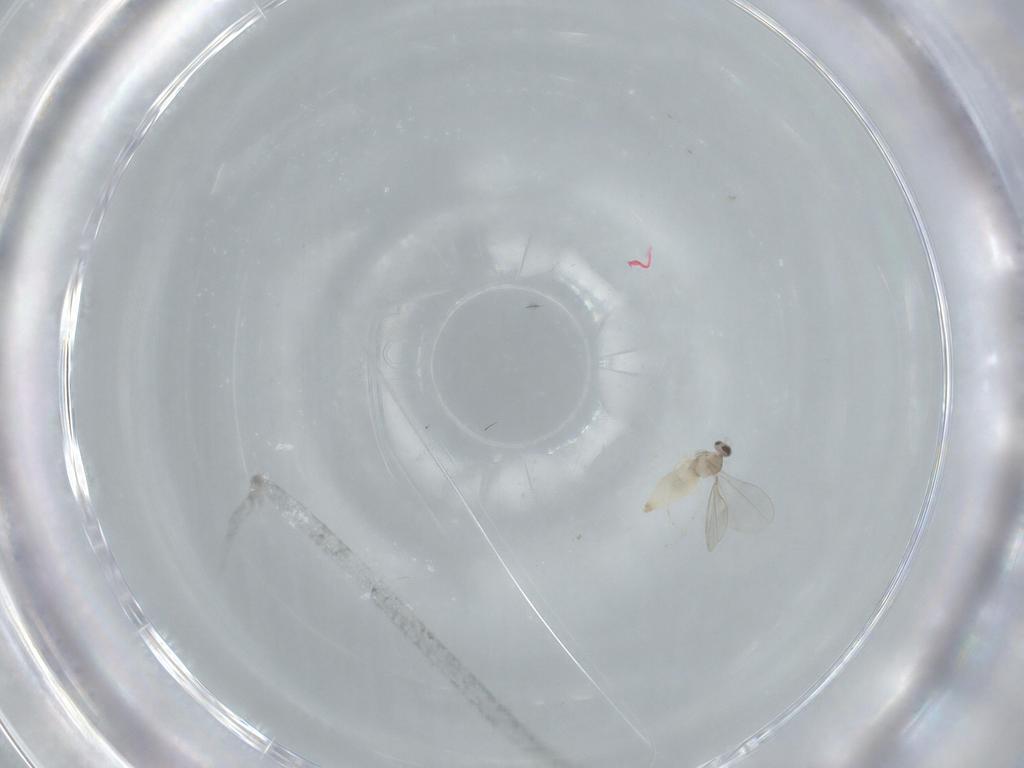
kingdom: Animalia
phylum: Arthropoda
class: Insecta
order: Diptera
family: Cecidomyiidae
